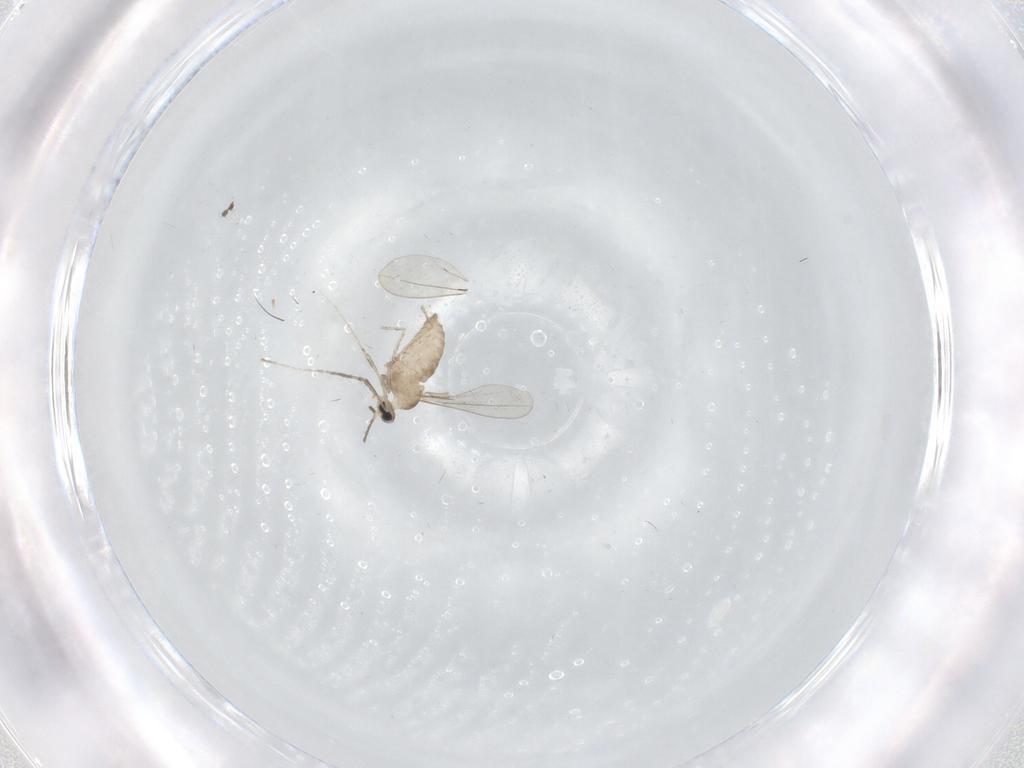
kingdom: Animalia
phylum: Arthropoda
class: Insecta
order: Diptera
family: Cecidomyiidae
